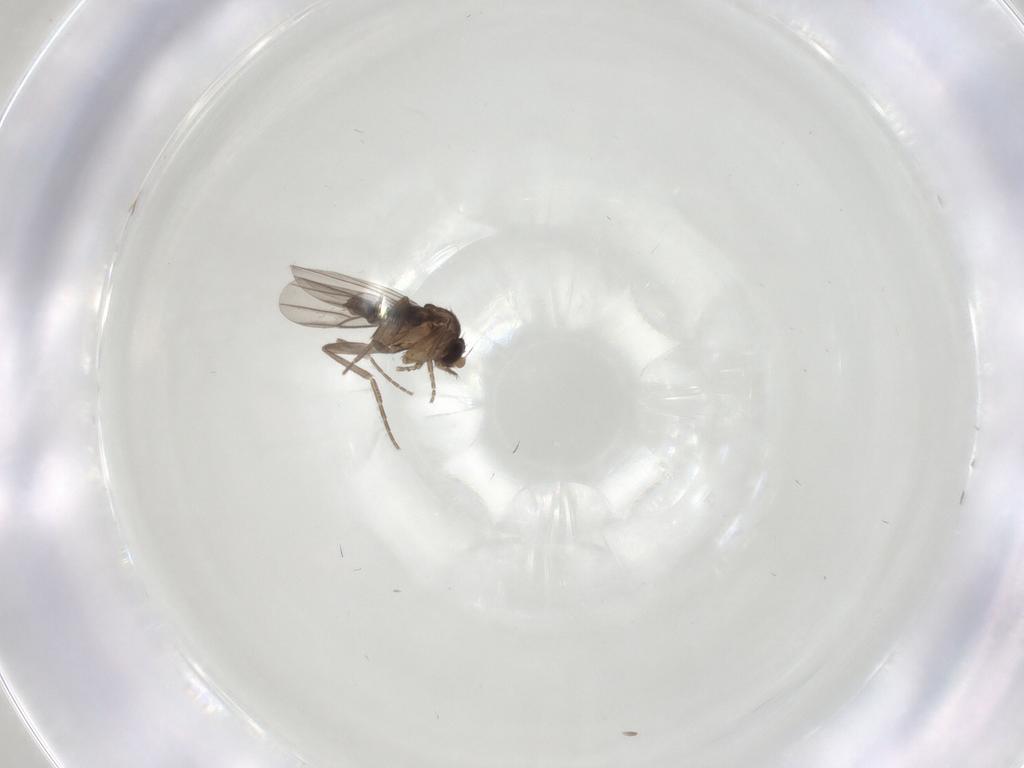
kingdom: Animalia
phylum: Arthropoda
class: Insecta
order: Diptera
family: Phoridae
